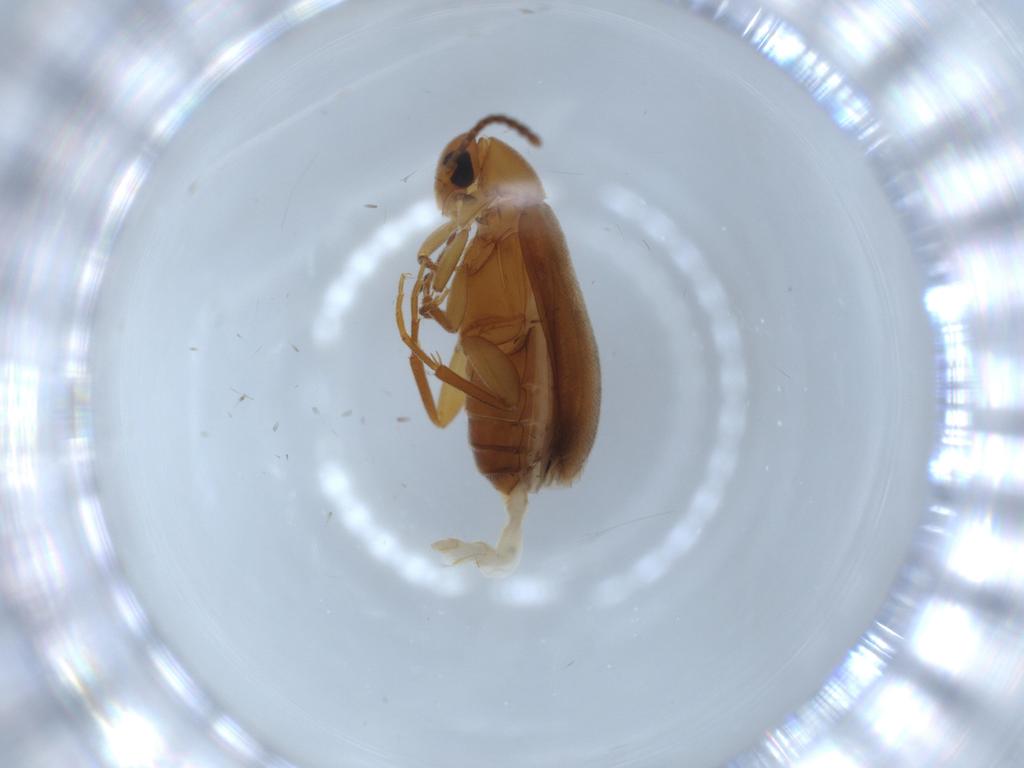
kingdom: Animalia
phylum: Arthropoda
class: Insecta
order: Coleoptera
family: Scraptiidae
